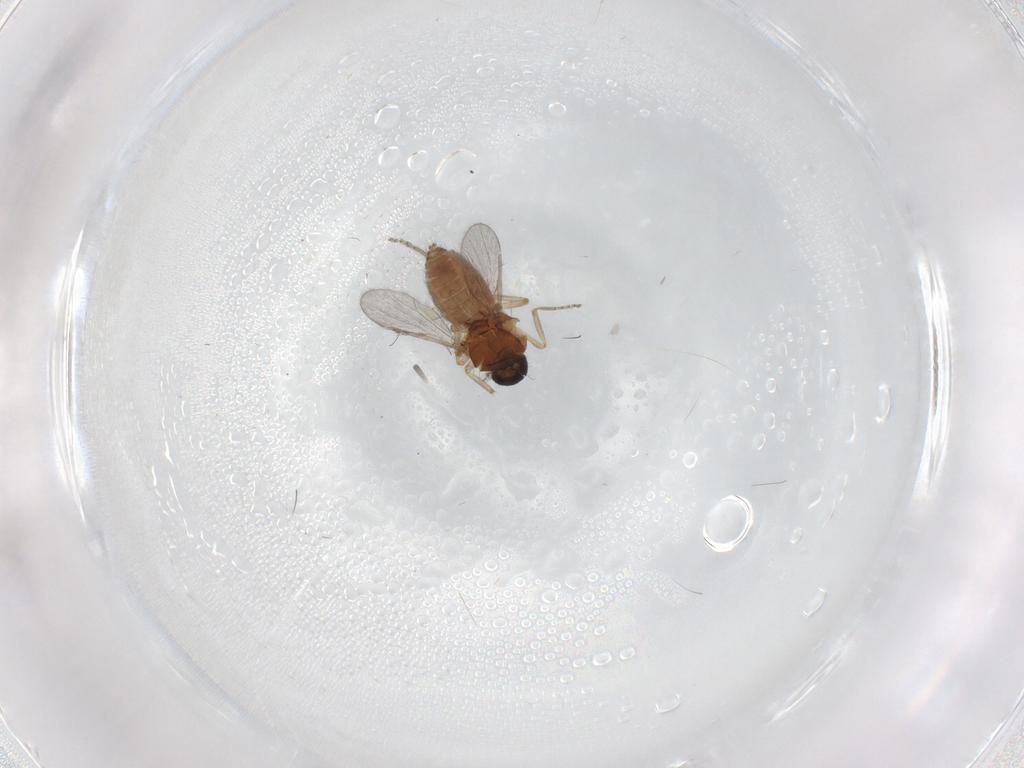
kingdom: Animalia
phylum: Arthropoda
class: Insecta
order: Diptera
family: Ceratopogonidae
